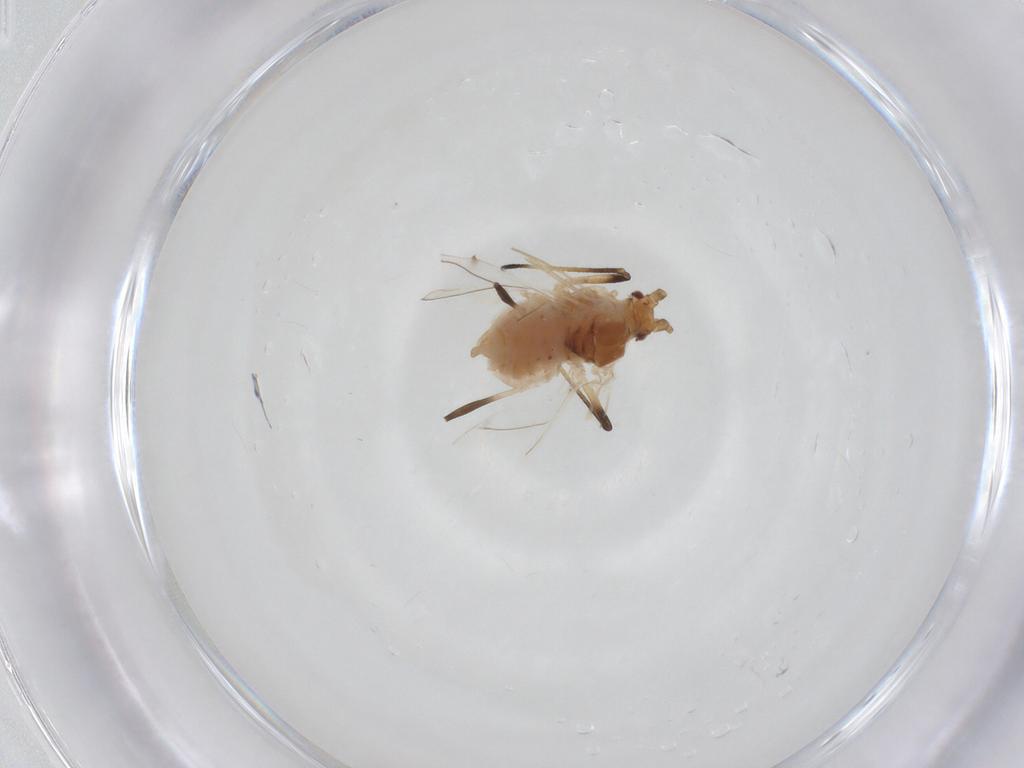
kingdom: Animalia
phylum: Arthropoda
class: Insecta
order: Hemiptera
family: Aphididae
